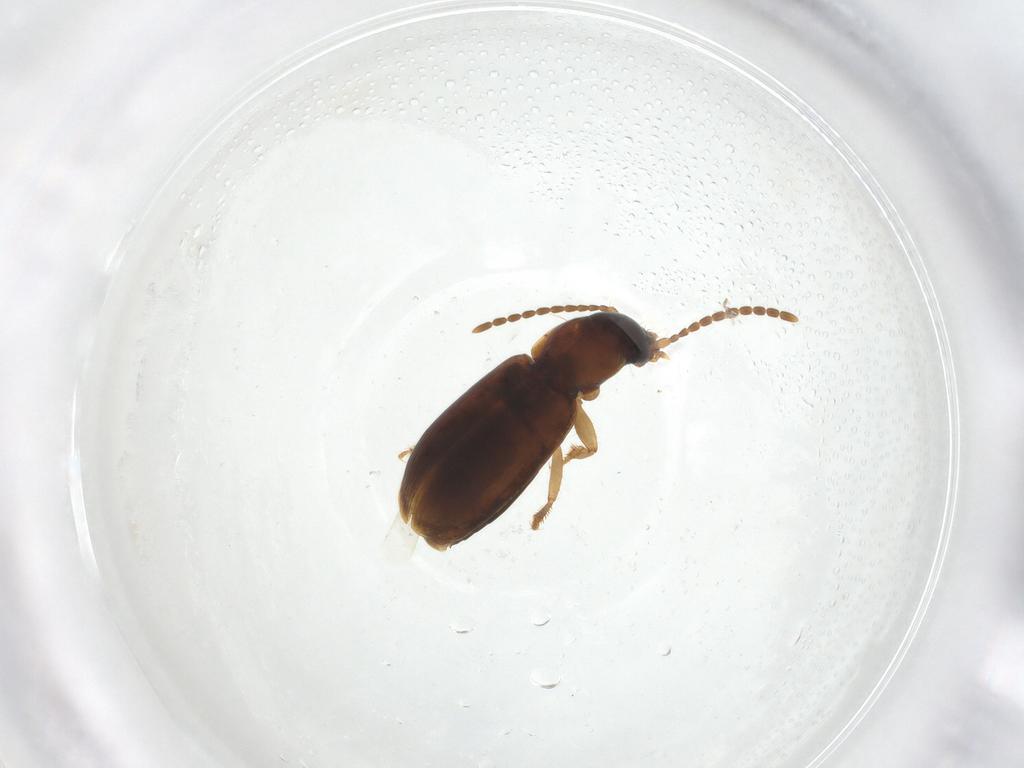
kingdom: Animalia
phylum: Arthropoda
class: Insecta
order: Coleoptera
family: Carabidae
